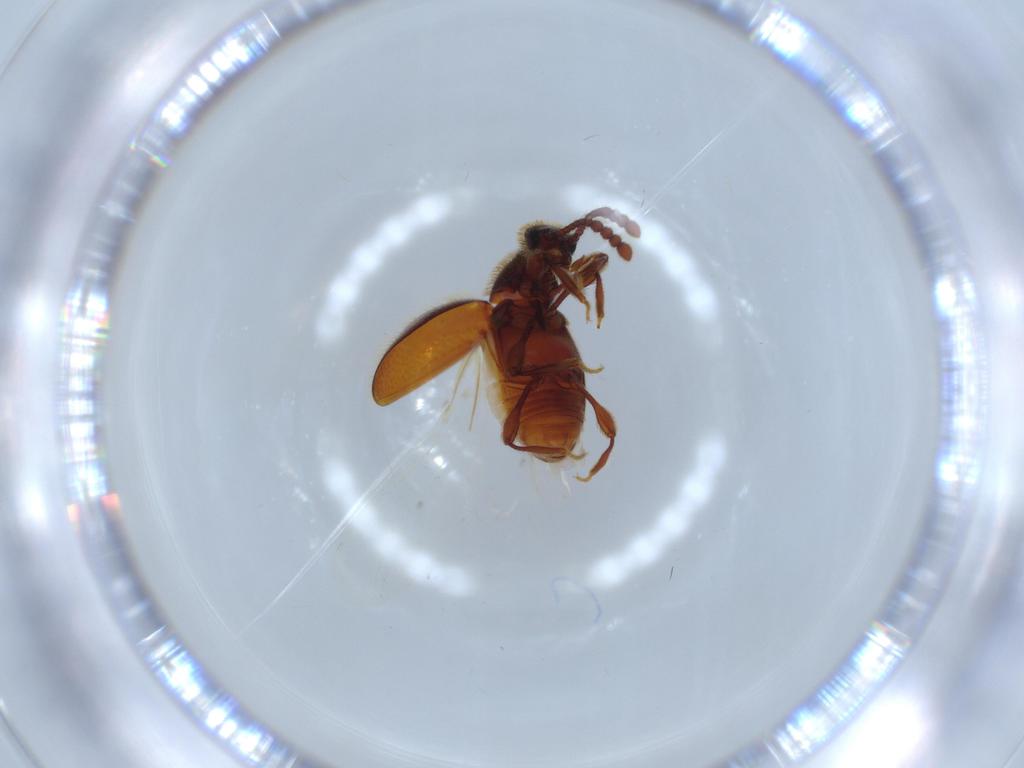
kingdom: Animalia
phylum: Arthropoda
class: Insecta
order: Coleoptera
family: Staphylinidae
